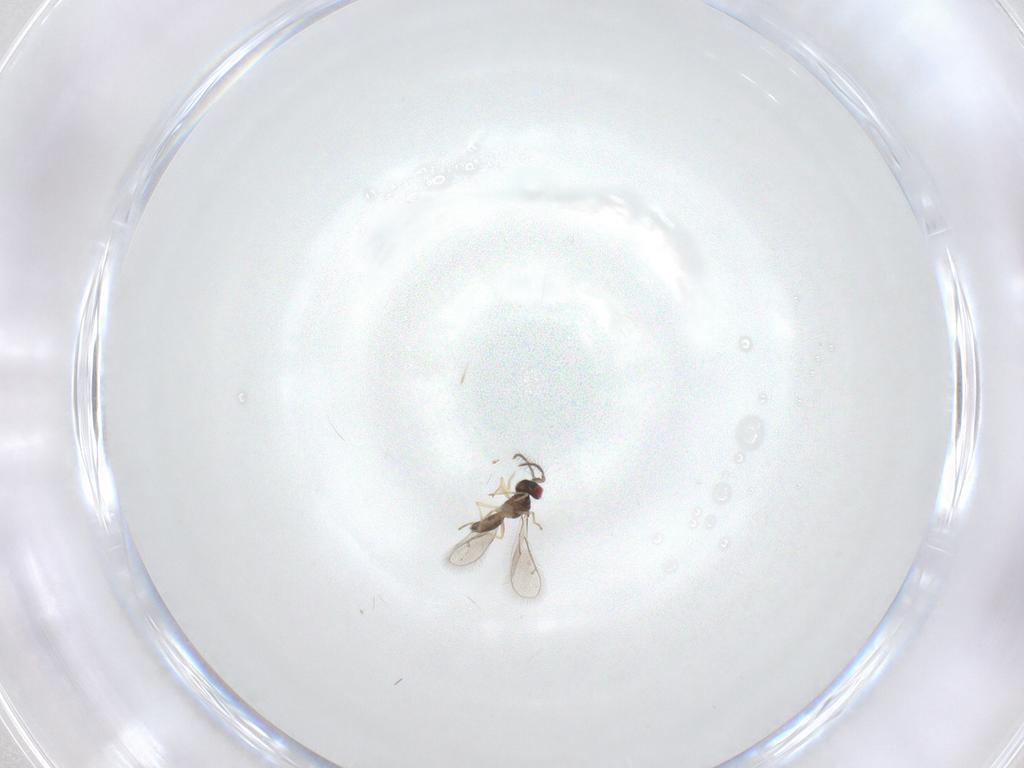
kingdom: Animalia
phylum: Arthropoda
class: Insecta
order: Hymenoptera
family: Eulophidae
